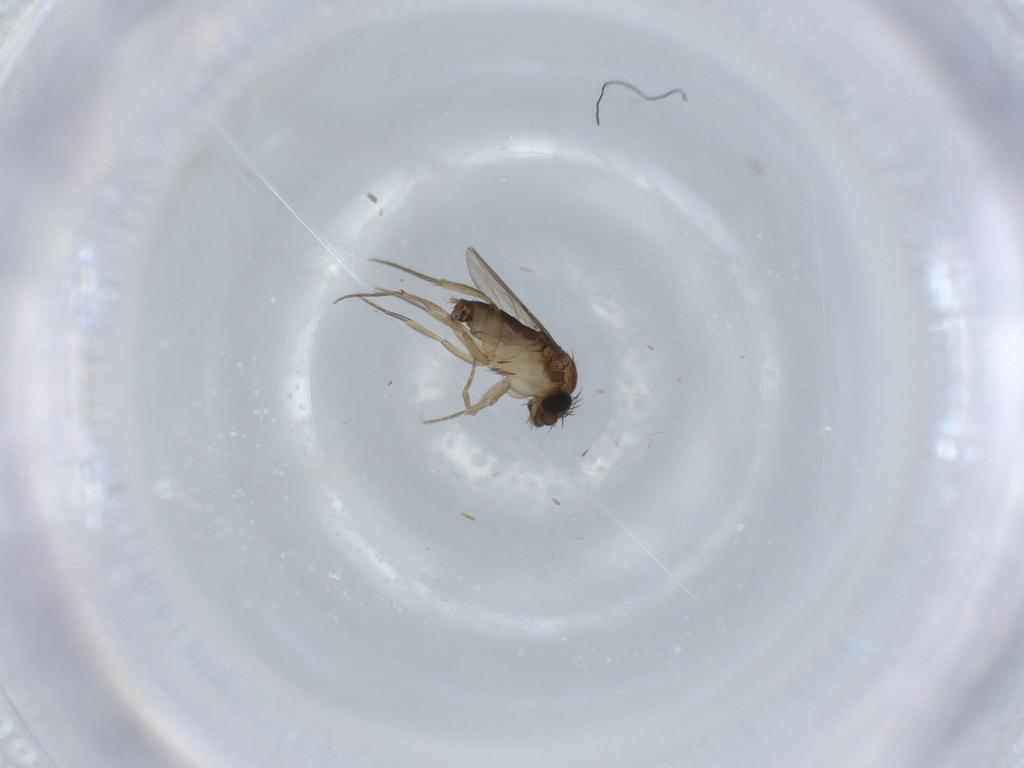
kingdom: Animalia
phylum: Arthropoda
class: Insecta
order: Diptera
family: Phoridae
